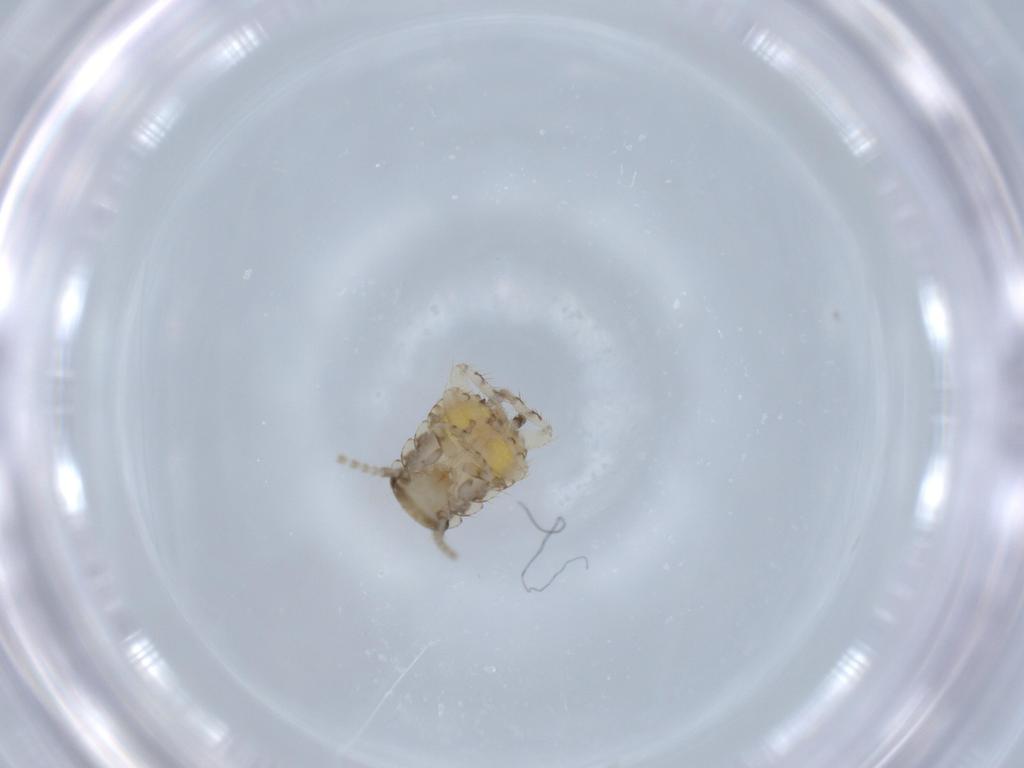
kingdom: Animalia
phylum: Arthropoda
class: Insecta
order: Blattodea
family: Ectobiidae
